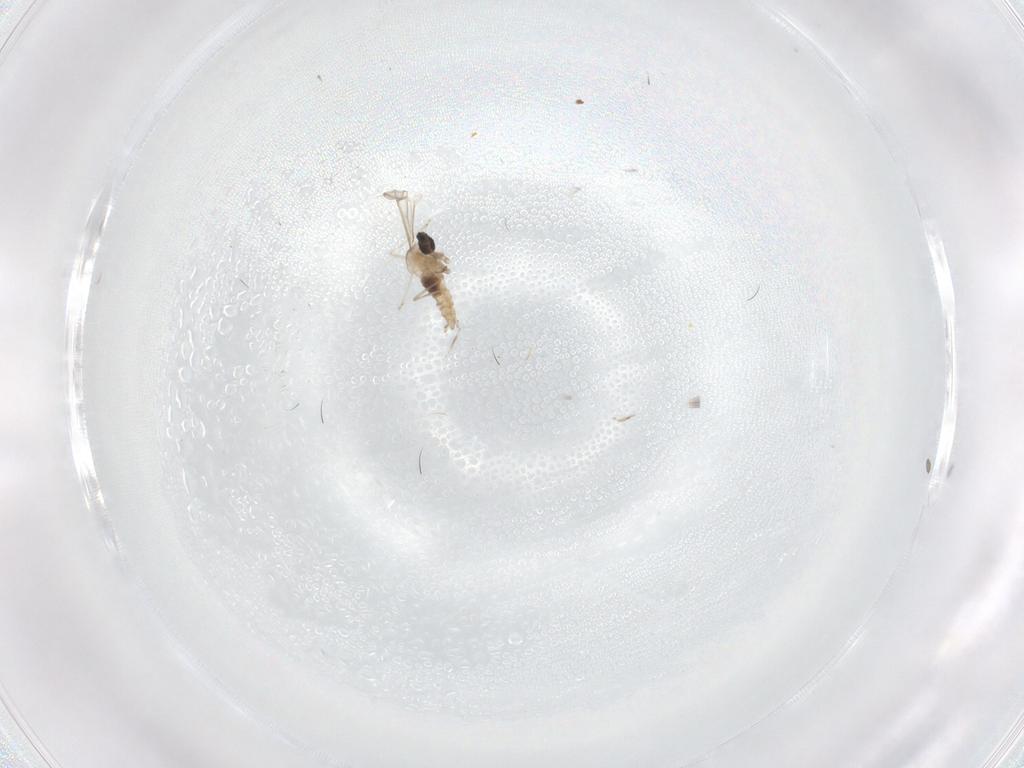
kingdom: Animalia
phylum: Arthropoda
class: Insecta
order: Diptera
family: Cecidomyiidae
